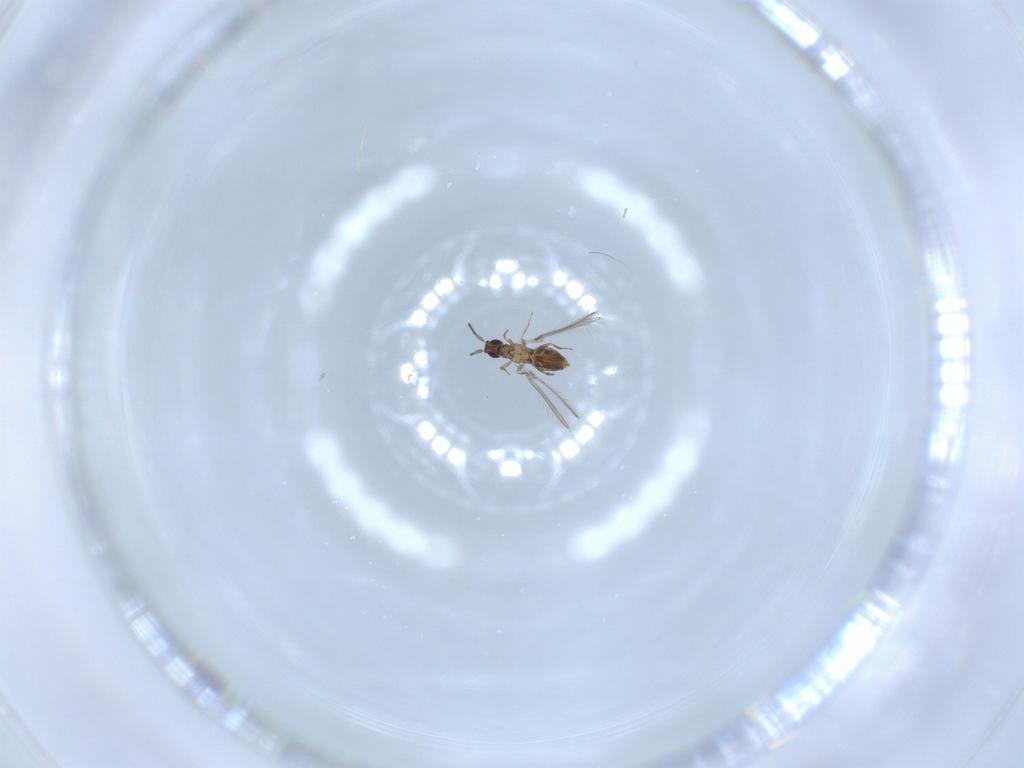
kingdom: Animalia
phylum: Arthropoda
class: Insecta
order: Hymenoptera
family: Mymaridae
